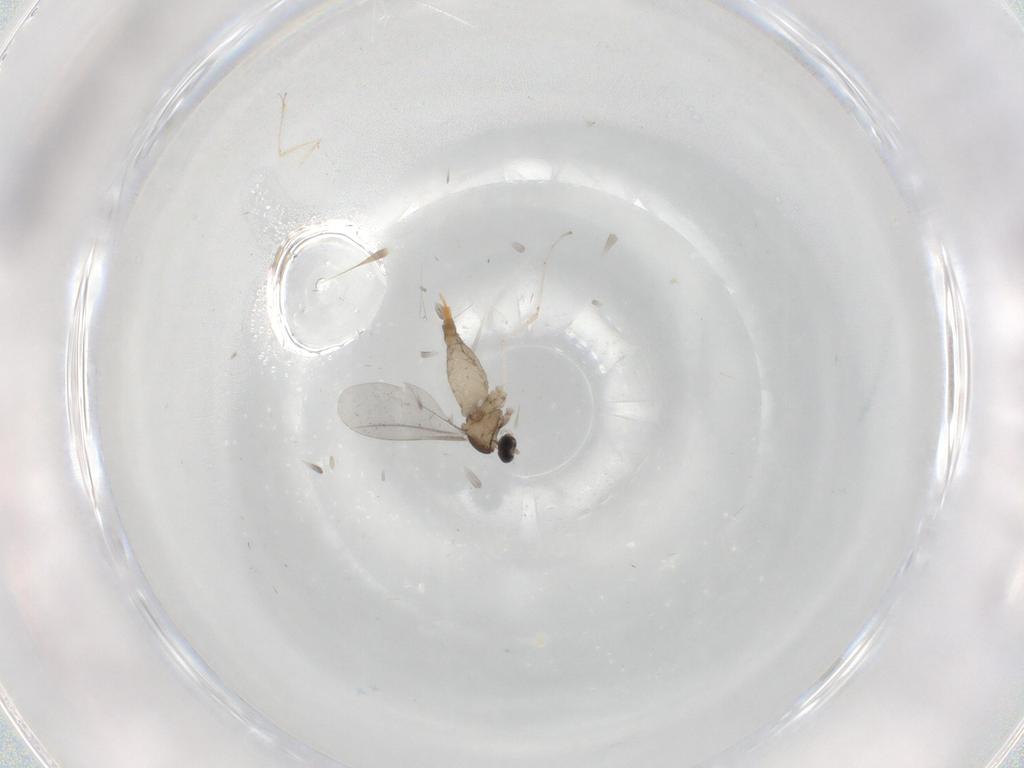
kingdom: Animalia
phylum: Arthropoda
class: Insecta
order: Diptera
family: Cecidomyiidae
